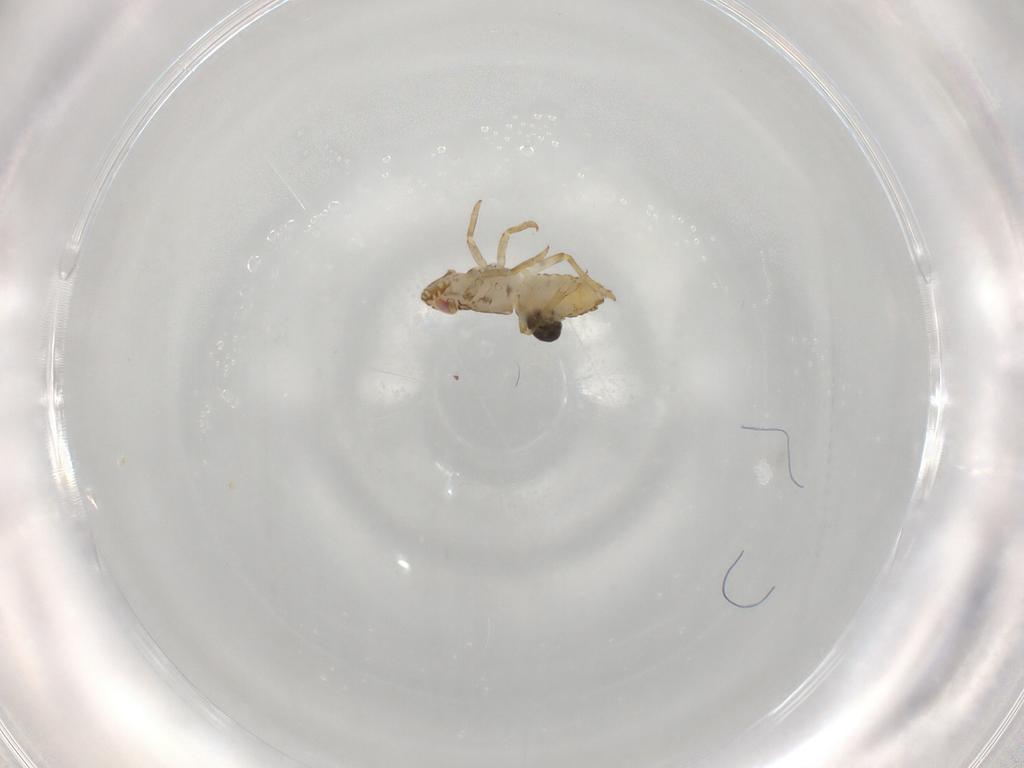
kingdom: Animalia
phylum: Arthropoda
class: Insecta
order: Hemiptera
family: Delphacidae
